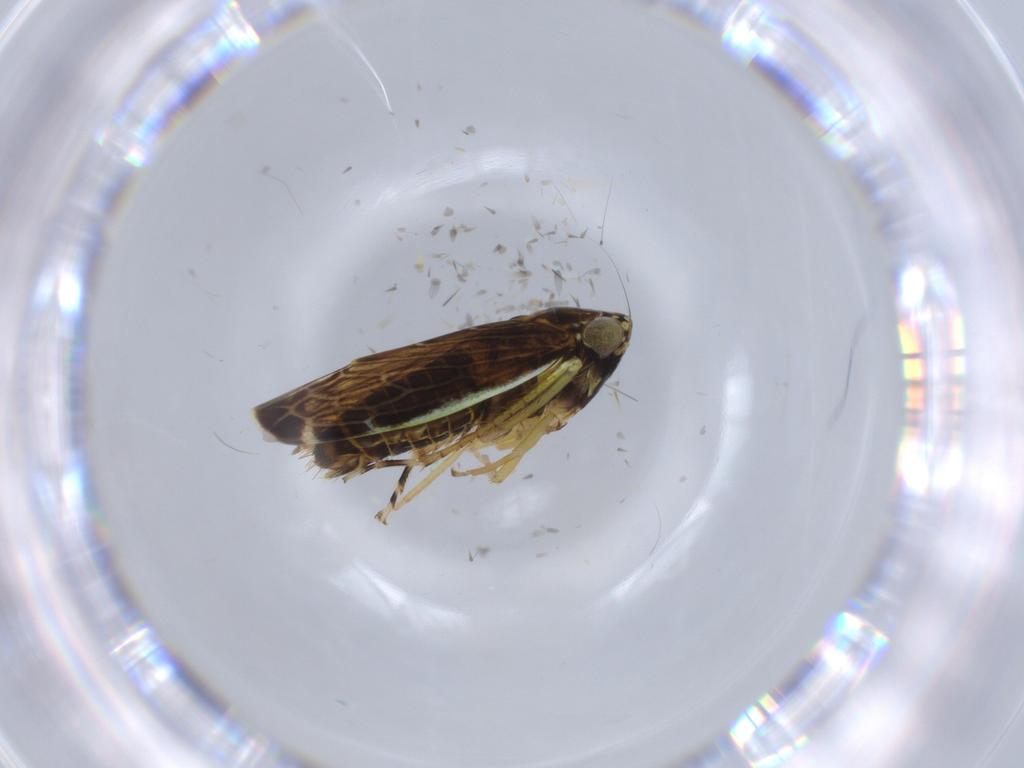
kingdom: Animalia
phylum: Arthropoda
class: Insecta
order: Hemiptera
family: Cicadellidae
